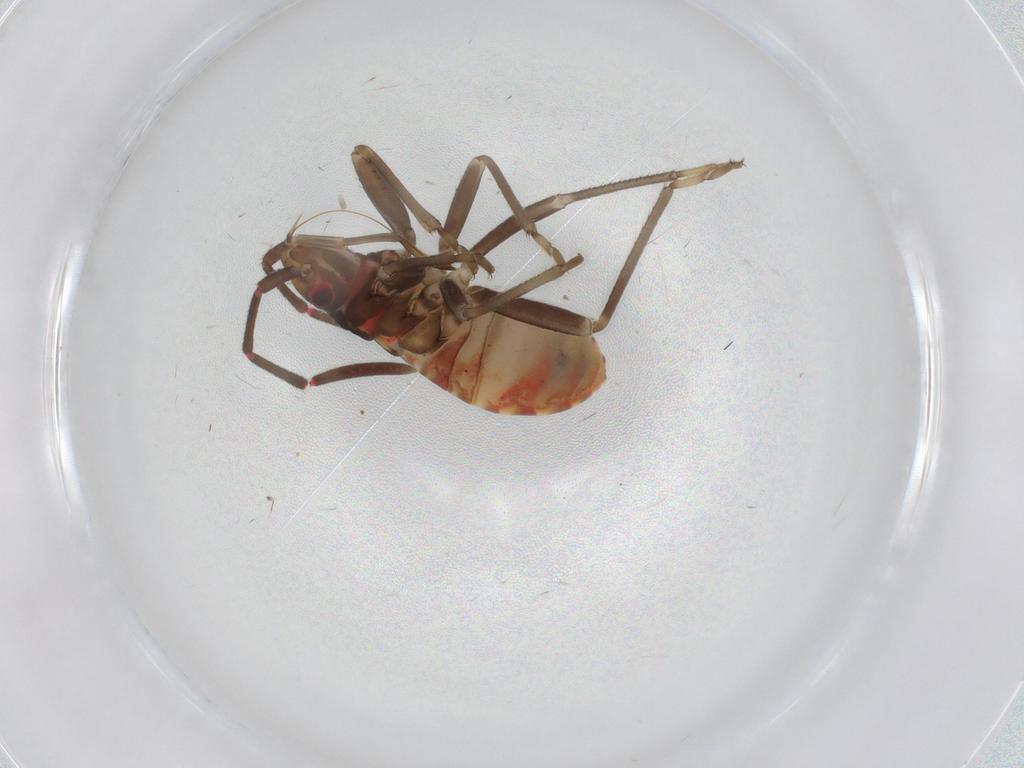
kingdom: Animalia
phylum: Arthropoda
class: Insecta
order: Hemiptera
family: Rhyparochromidae
